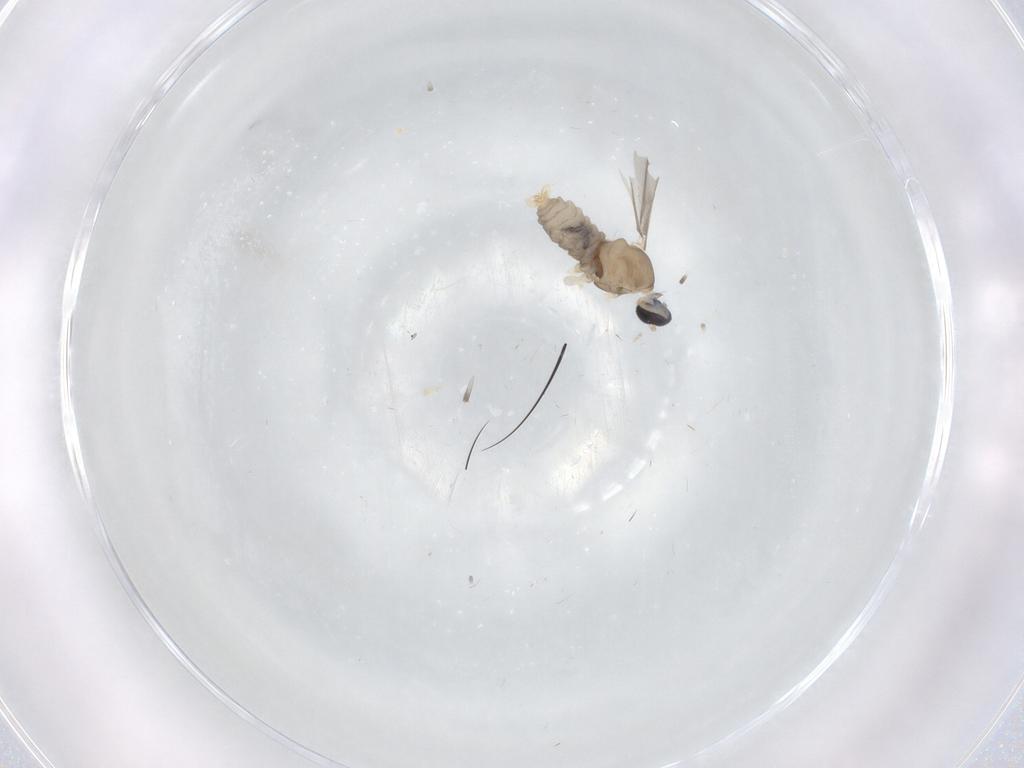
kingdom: Animalia
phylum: Arthropoda
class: Insecta
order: Diptera
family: Cecidomyiidae
